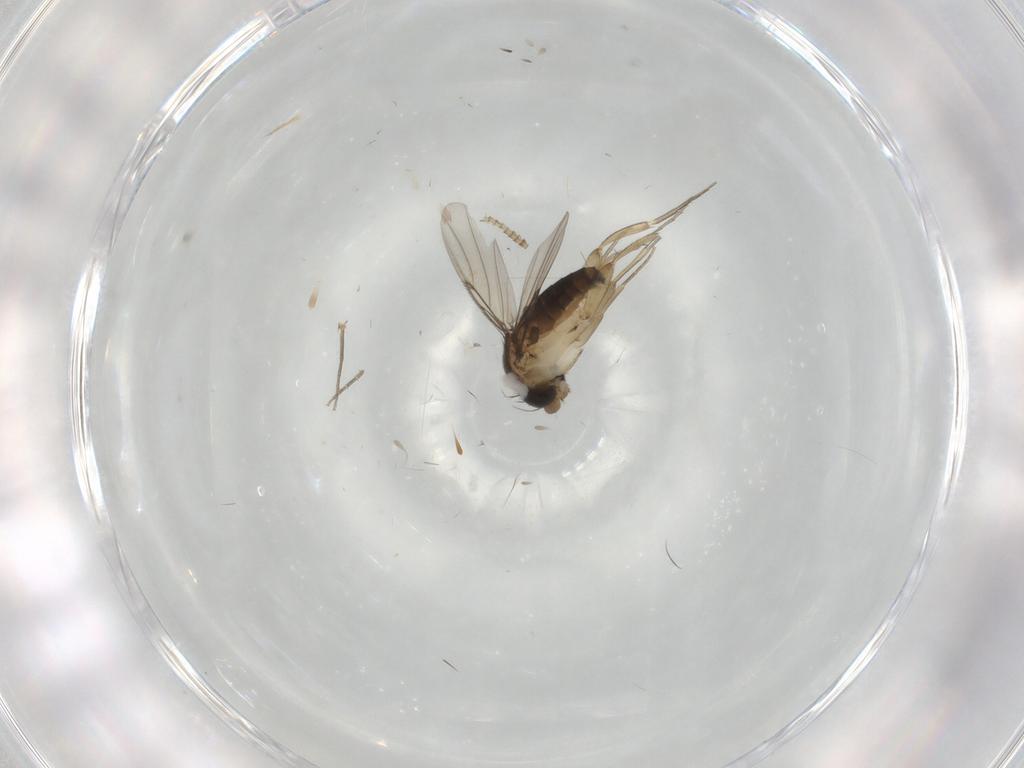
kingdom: Animalia
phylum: Arthropoda
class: Insecta
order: Diptera
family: Phoridae
